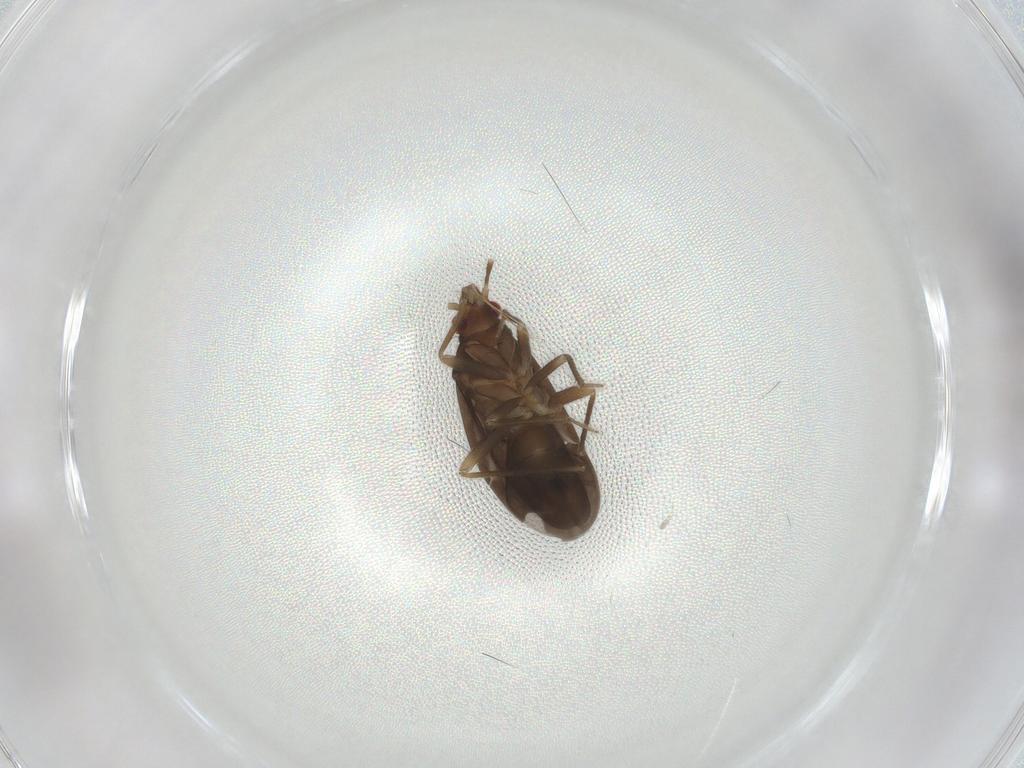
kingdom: Animalia
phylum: Arthropoda
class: Insecta
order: Hemiptera
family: Ceratocombidae
